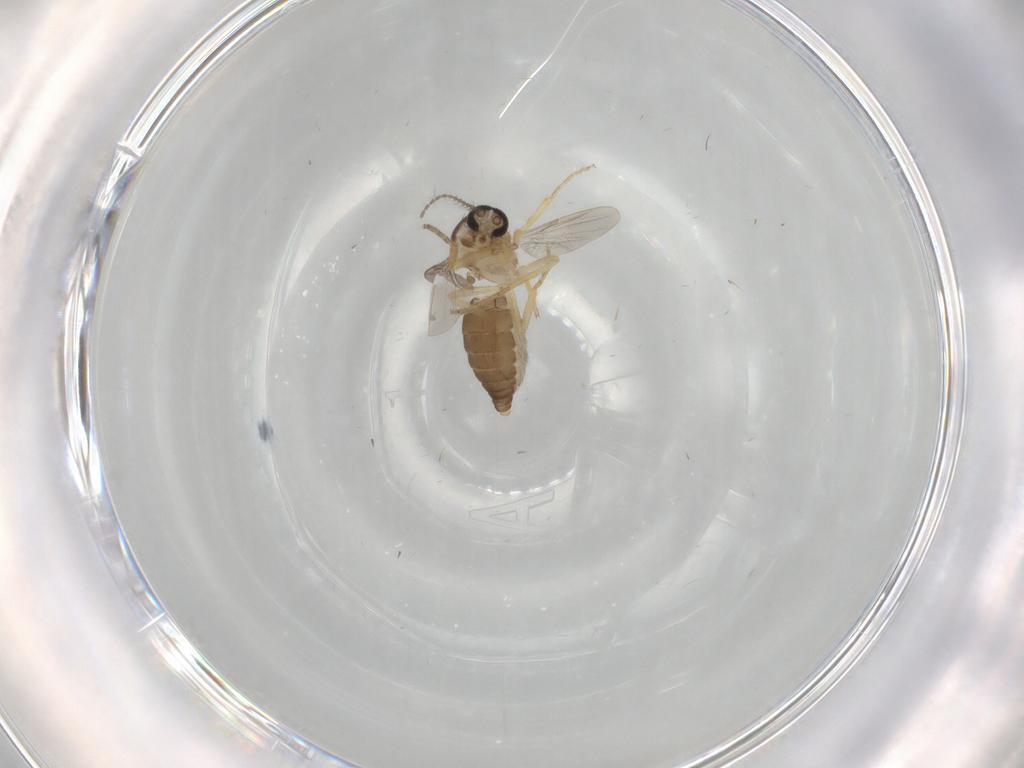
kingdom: Animalia
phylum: Arthropoda
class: Insecta
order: Diptera
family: Ceratopogonidae
